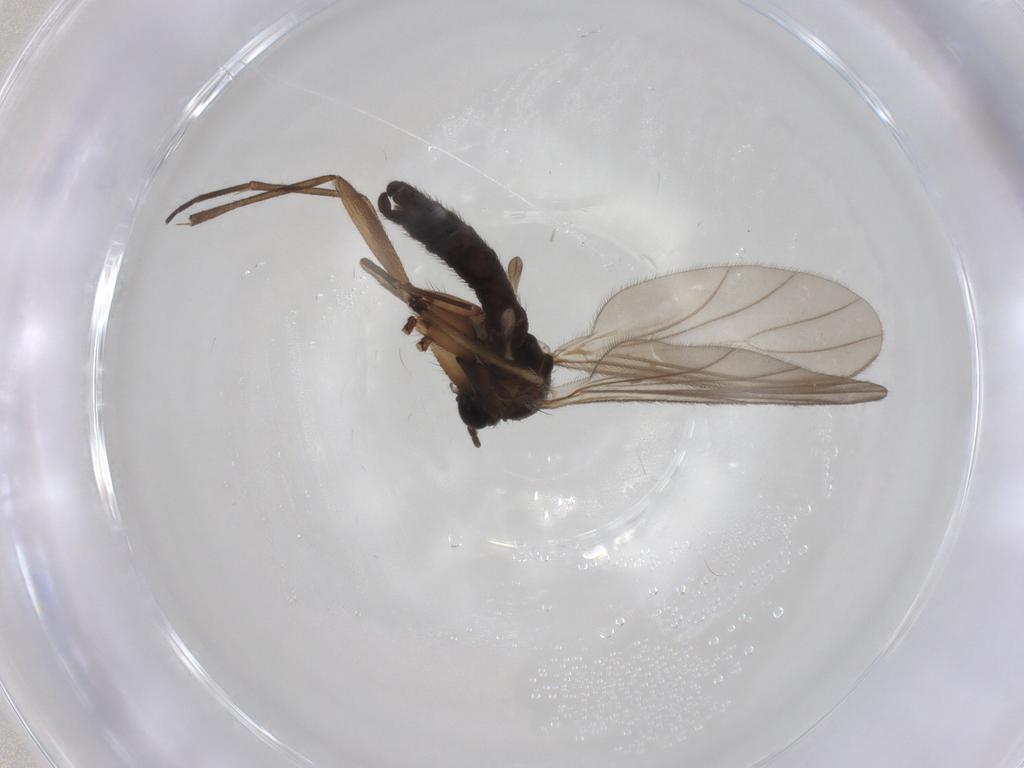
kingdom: Animalia
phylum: Arthropoda
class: Insecta
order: Diptera
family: Sciaridae
